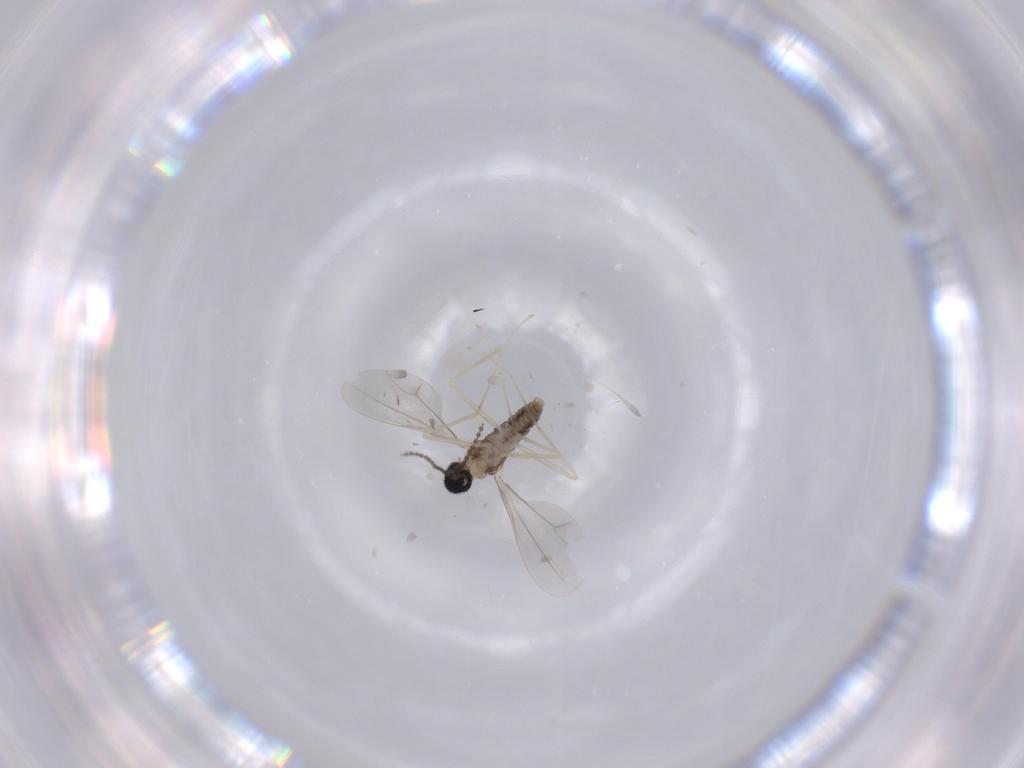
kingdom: Animalia
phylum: Arthropoda
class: Insecta
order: Diptera
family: Cecidomyiidae
